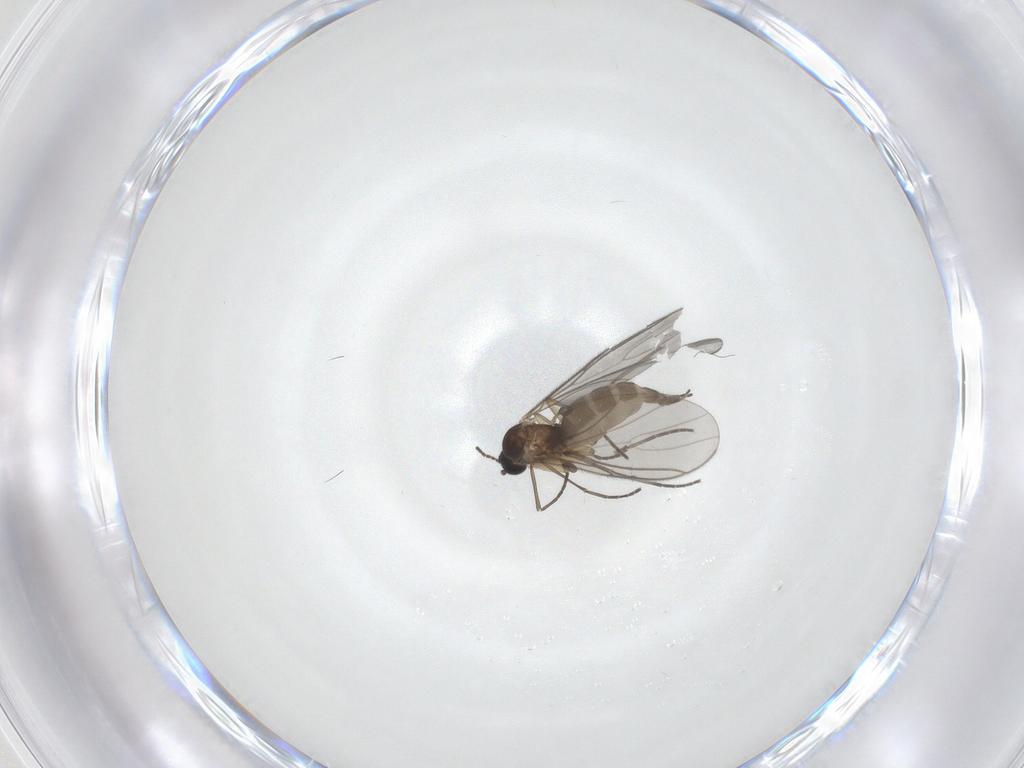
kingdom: Animalia
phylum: Arthropoda
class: Insecta
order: Diptera
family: Sciaridae
